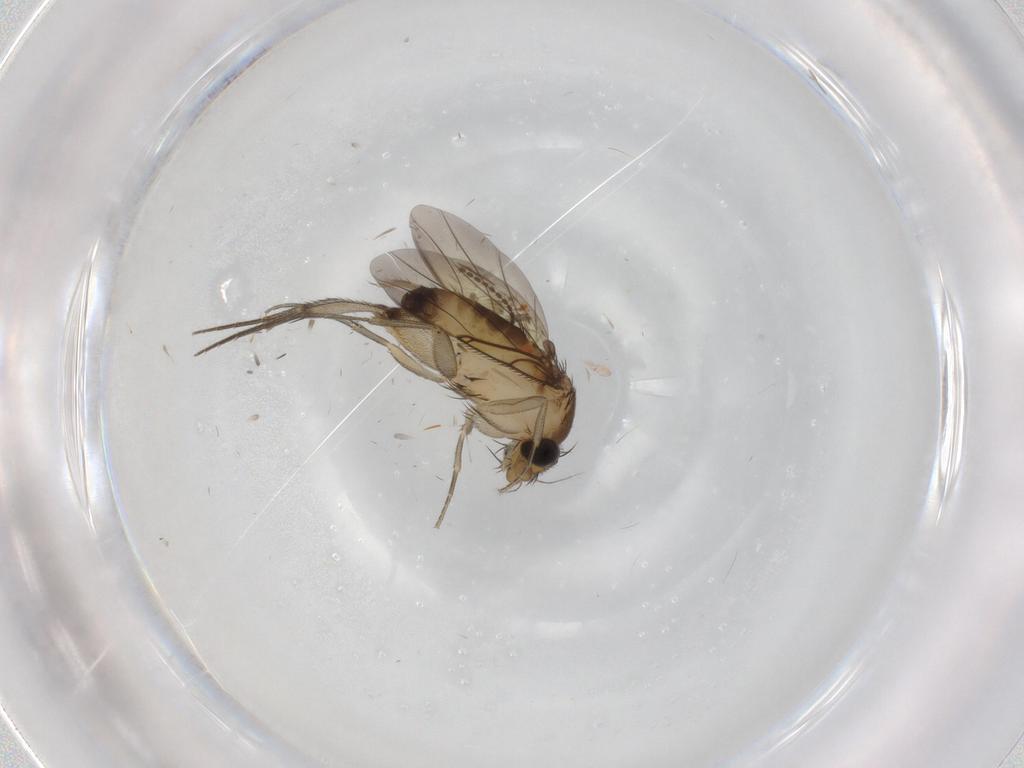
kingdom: Animalia
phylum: Arthropoda
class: Insecta
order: Diptera
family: Phoridae
